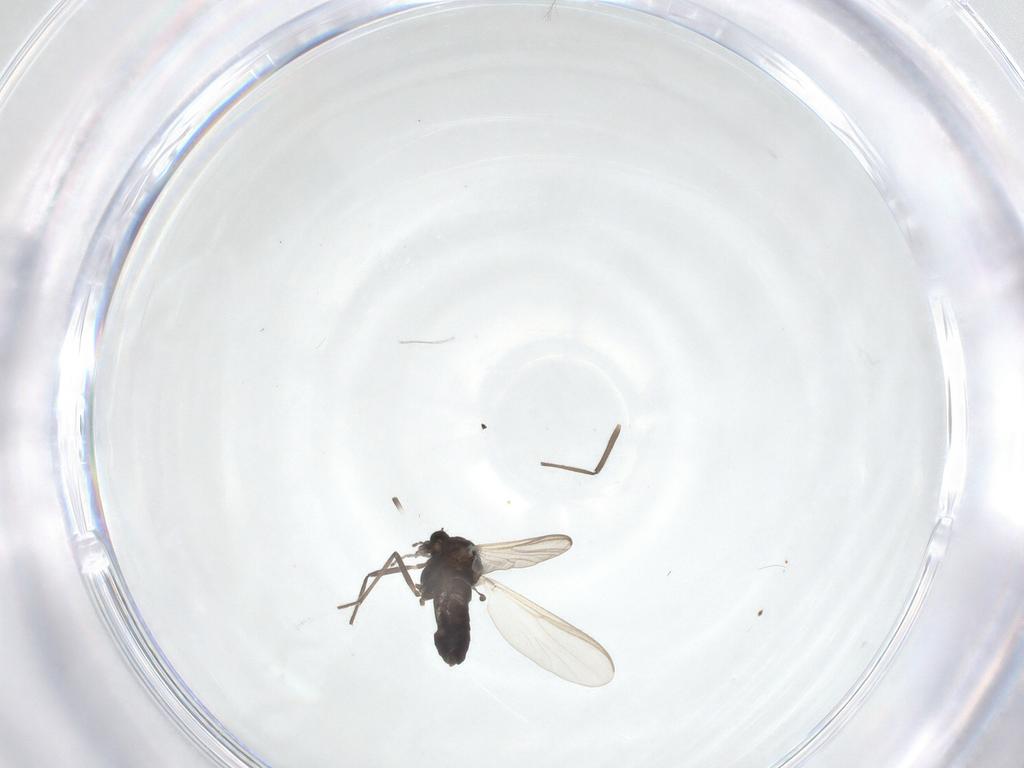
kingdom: Animalia
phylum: Arthropoda
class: Insecta
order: Diptera
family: Chironomidae
